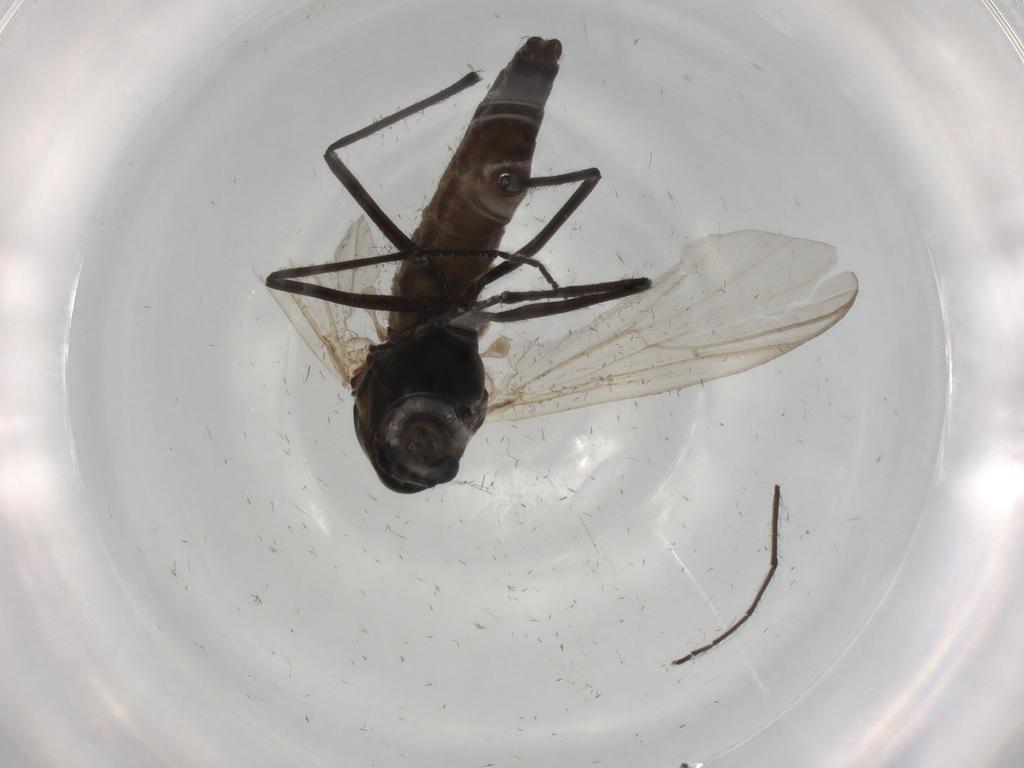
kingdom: Animalia
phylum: Arthropoda
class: Insecta
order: Diptera
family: Chironomidae
